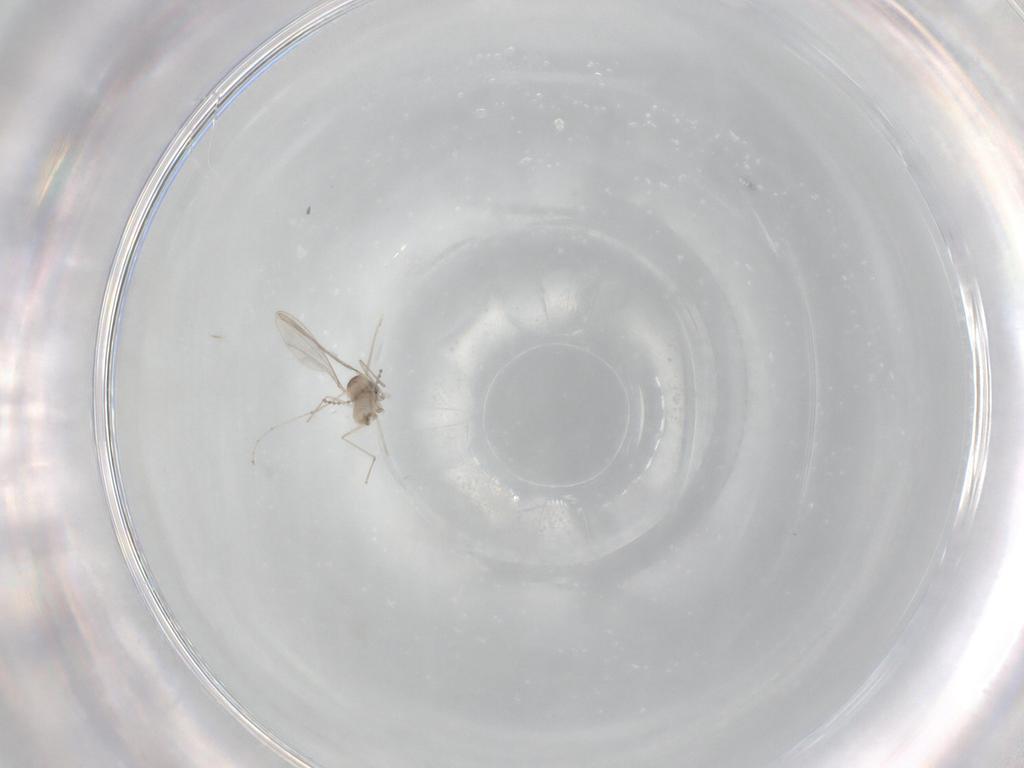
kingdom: Animalia
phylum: Arthropoda
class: Insecta
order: Diptera
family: Cecidomyiidae
